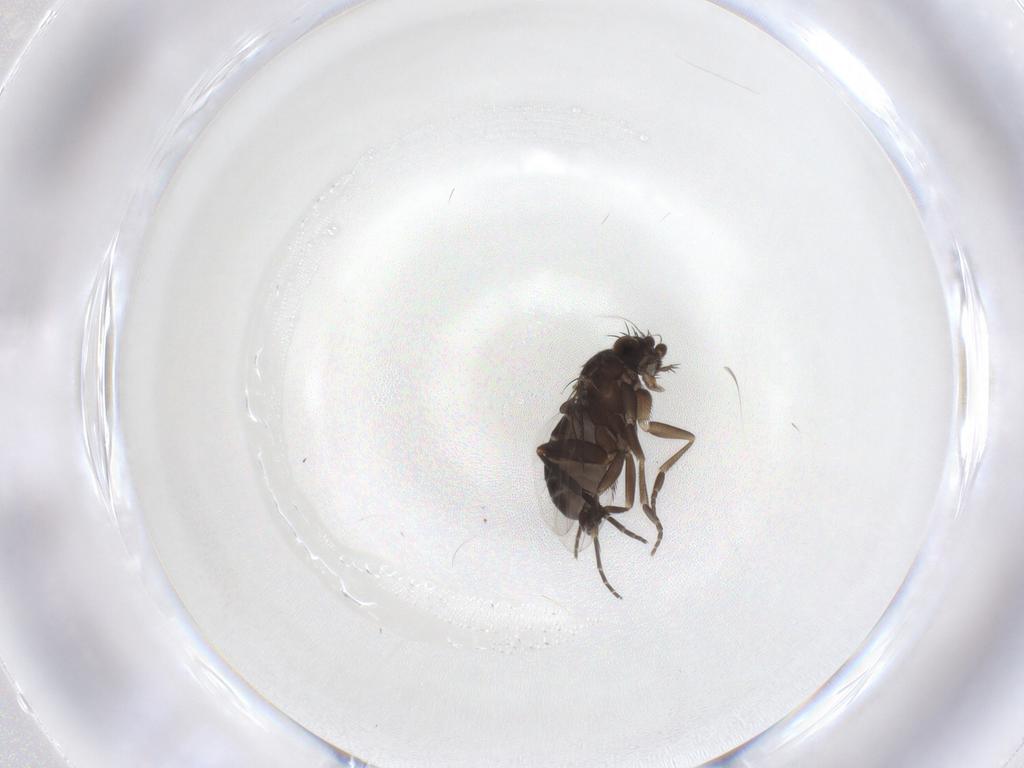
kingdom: Animalia
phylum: Arthropoda
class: Insecta
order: Diptera
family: Phoridae
